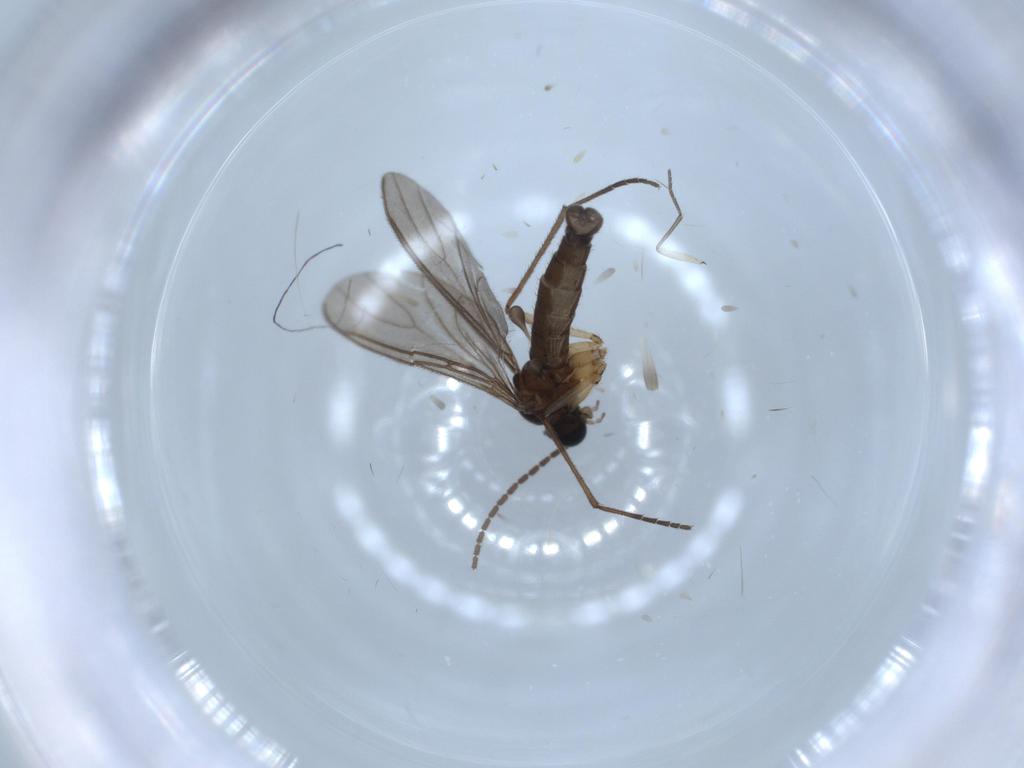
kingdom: Animalia
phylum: Arthropoda
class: Insecta
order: Diptera
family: Sciaridae
